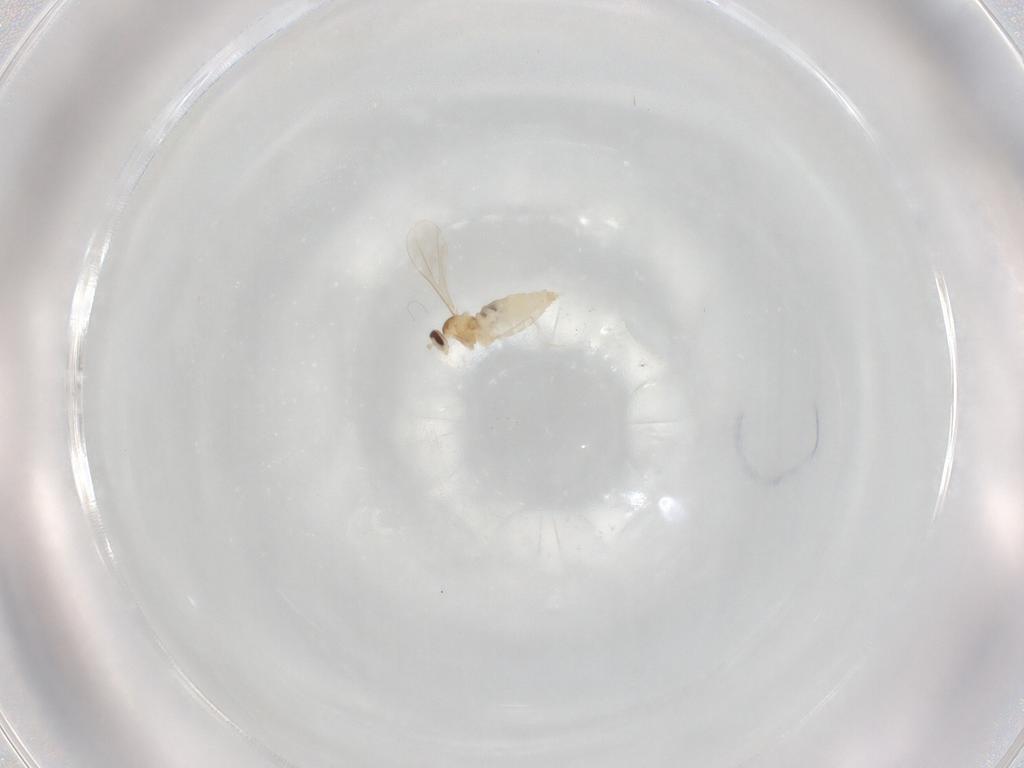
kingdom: Animalia
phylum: Arthropoda
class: Insecta
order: Diptera
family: Cecidomyiidae
